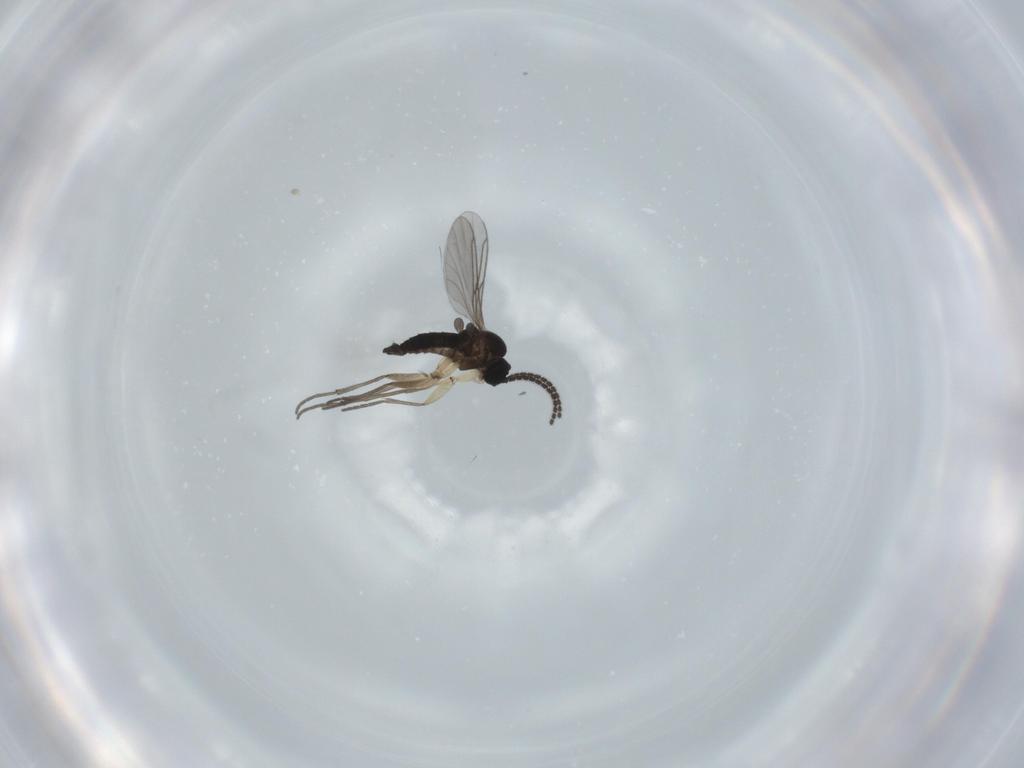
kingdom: Animalia
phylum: Arthropoda
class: Insecta
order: Diptera
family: Sciaridae
